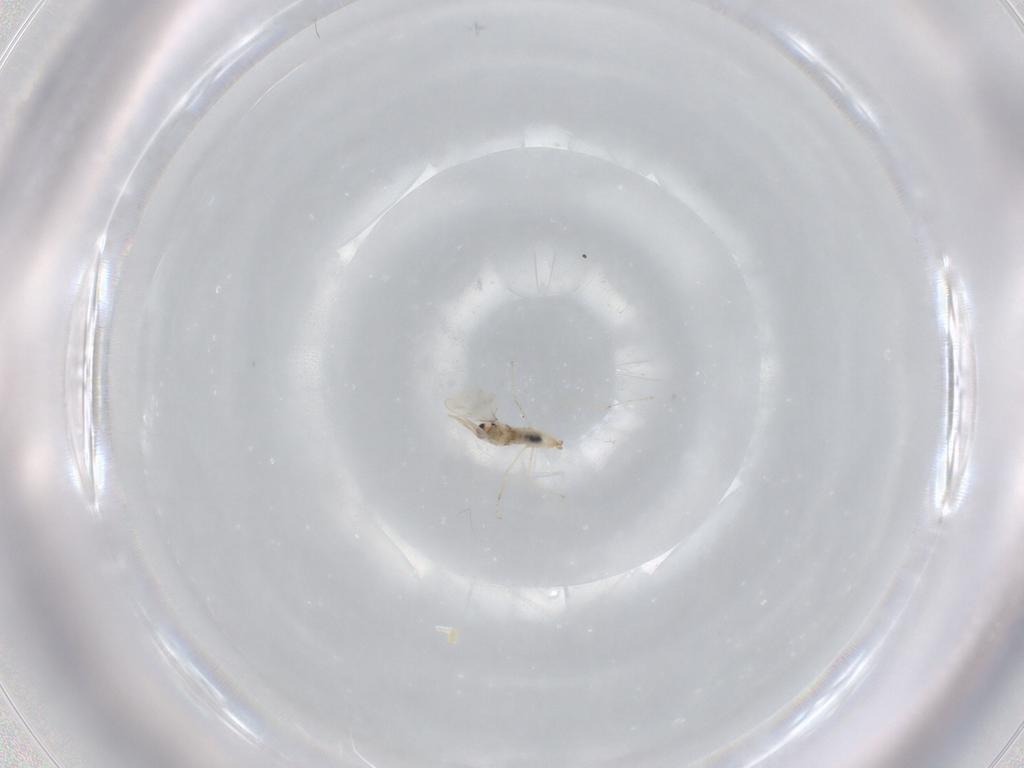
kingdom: Animalia
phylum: Arthropoda
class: Insecta
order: Diptera
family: Cecidomyiidae
